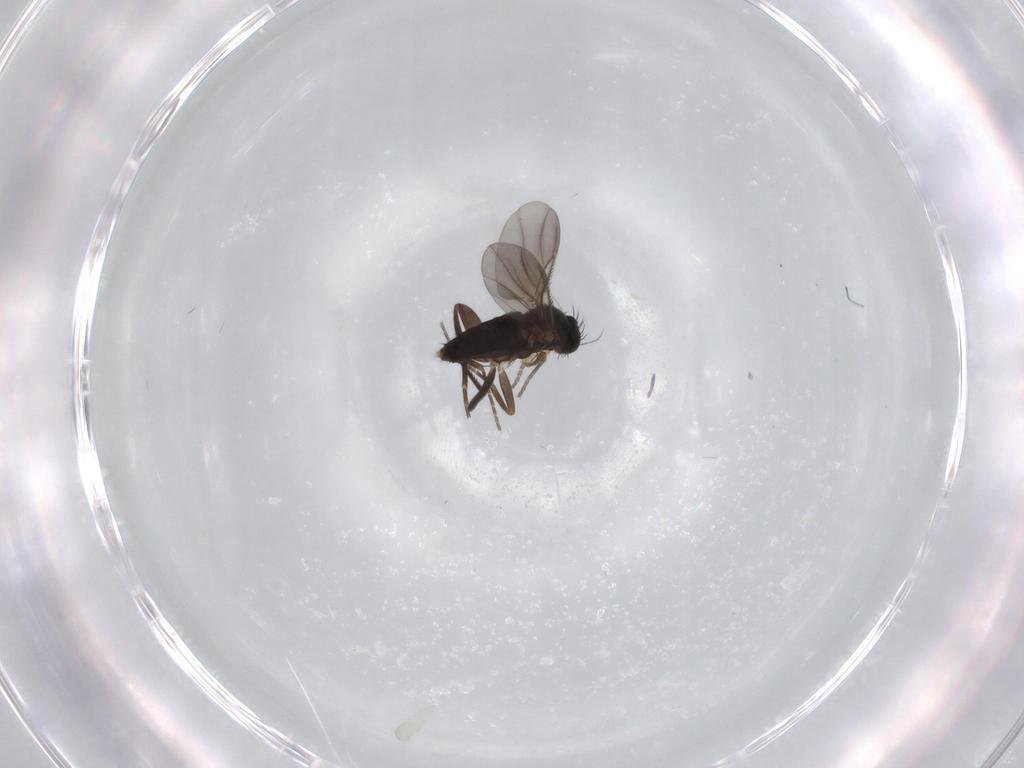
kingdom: Animalia
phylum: Arthropoda
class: Insecta
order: Diptera
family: Phoridae
